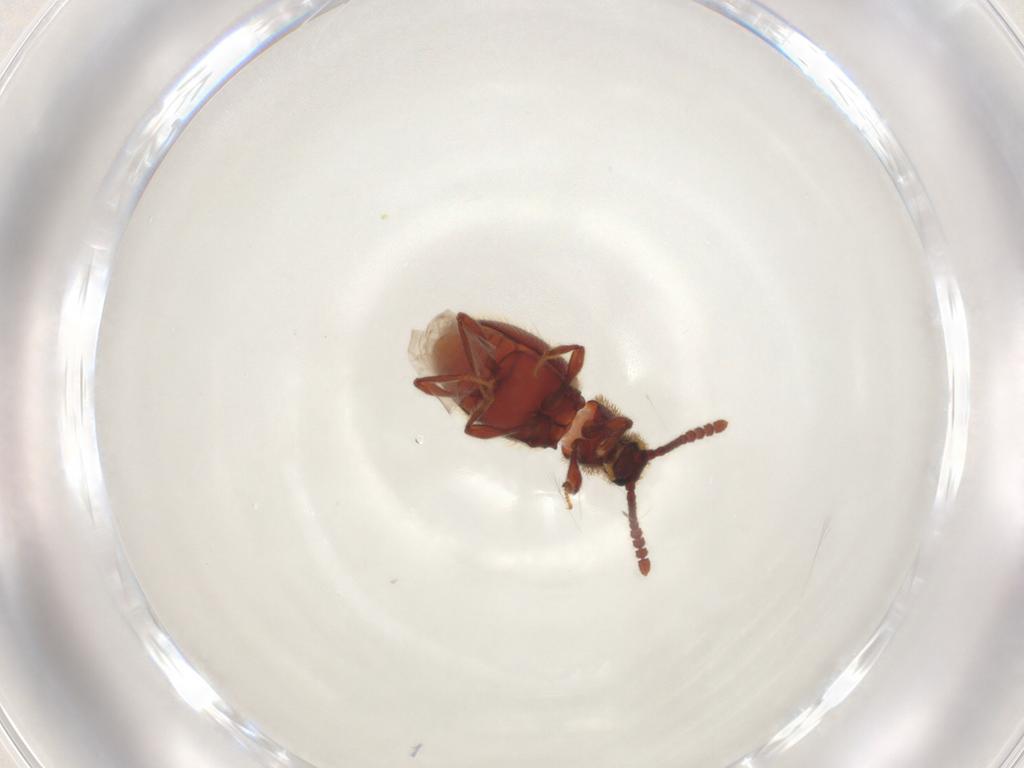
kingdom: Animalia
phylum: Arthropoda
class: Insecta
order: Coleoptera
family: Staphylinidae
